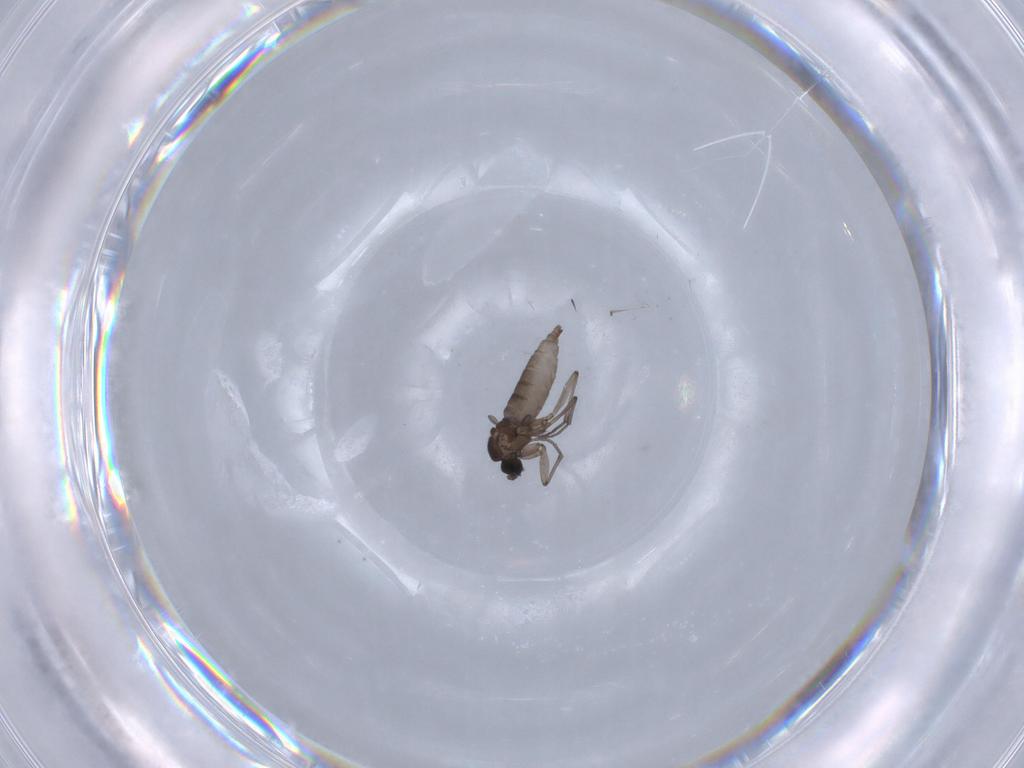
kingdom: Animalia
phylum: Arthropoda
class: Insecta
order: Diptera
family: Sciaridae
